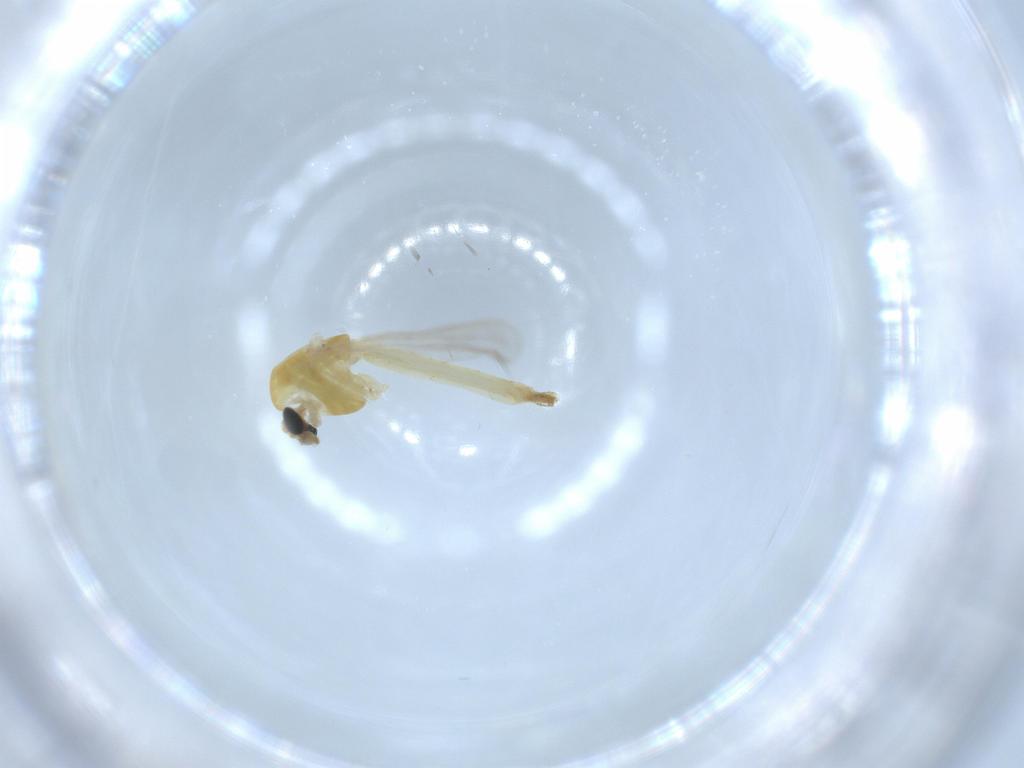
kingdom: Animalia
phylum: Arthropoda
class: Insecta
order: Diptera
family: Sciaridae
